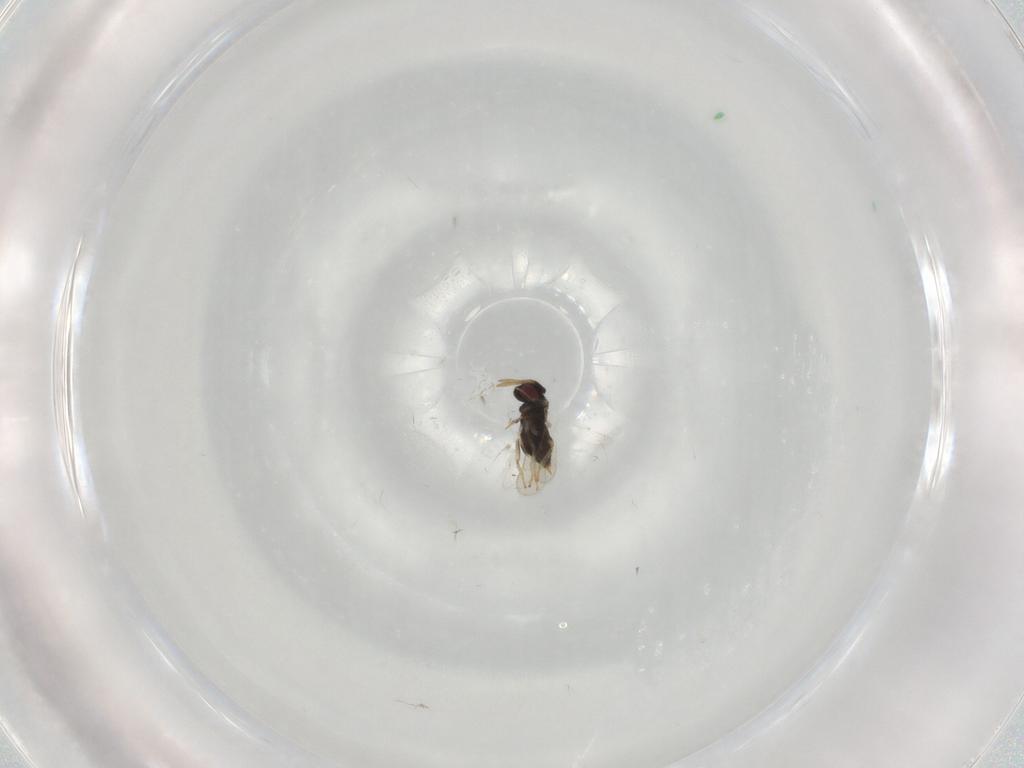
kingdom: Animalia
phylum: Arthropoda
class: Insecta
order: Hymenoptera
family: Aphelinidae
